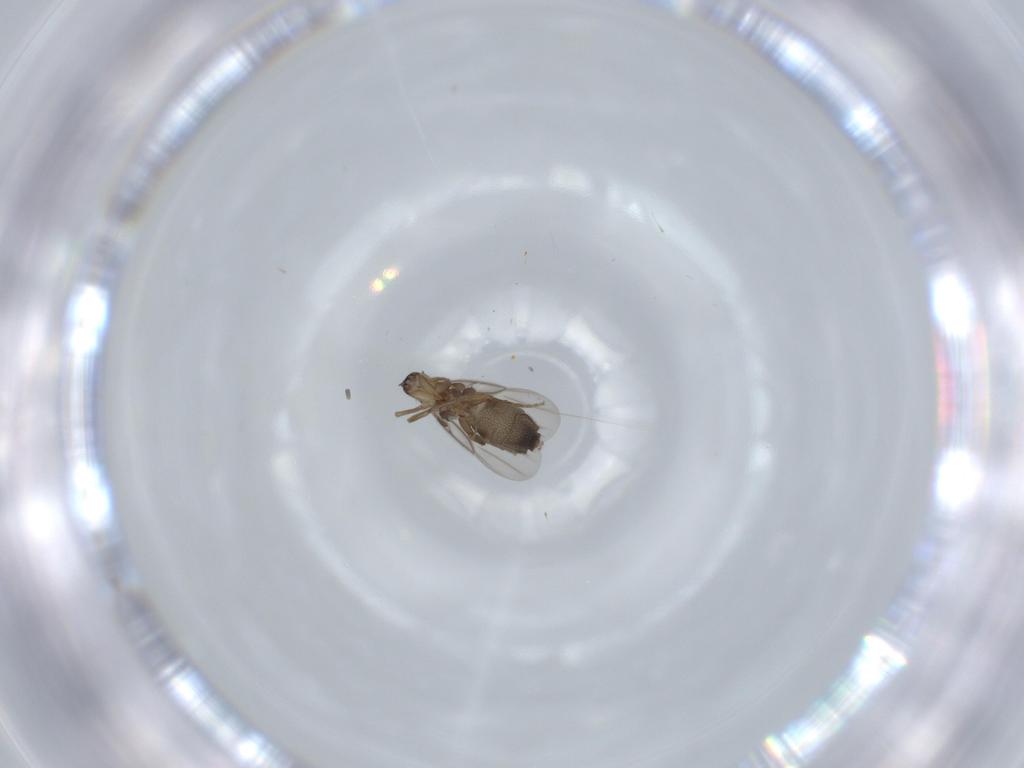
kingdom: Animalia
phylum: Arthropoda
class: Insecta
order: Diptera
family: Phoridae
